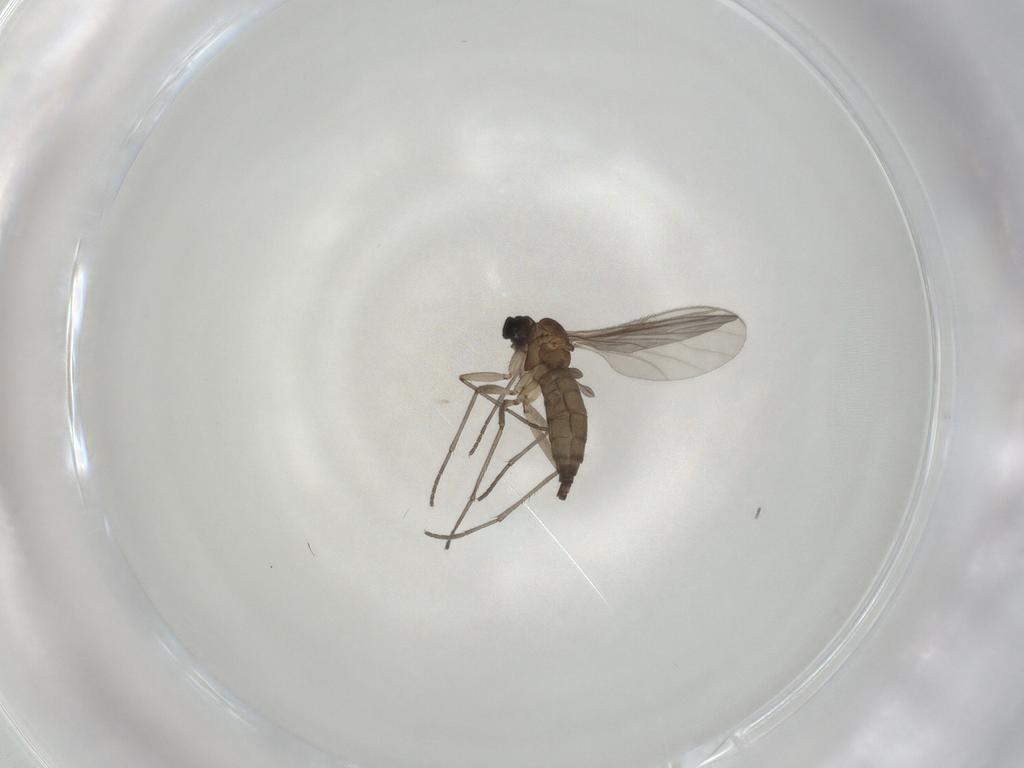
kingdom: Animalia
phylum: Arthropoda
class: Insecta
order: Diptera
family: Sciaridae
